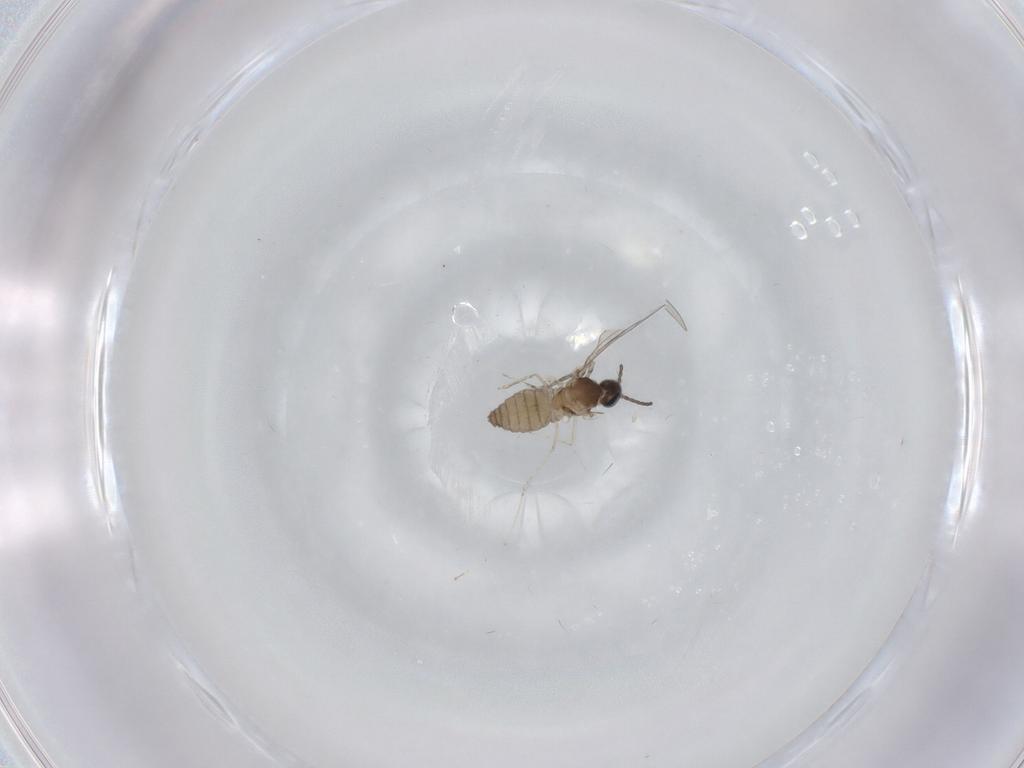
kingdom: Animalia
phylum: Arthropoda
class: Insecta
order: Diptera
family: Cecidomyiidae
